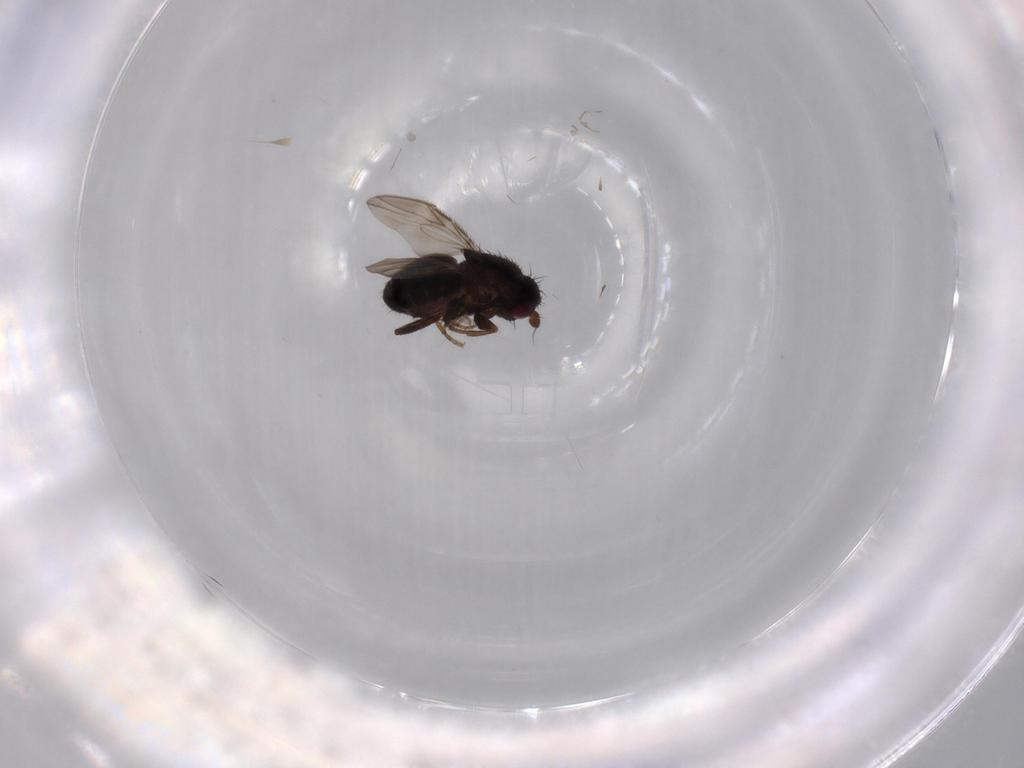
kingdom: Animalia
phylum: Arthropoda
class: Insecta
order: Diptera
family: Sphaeroceridae
